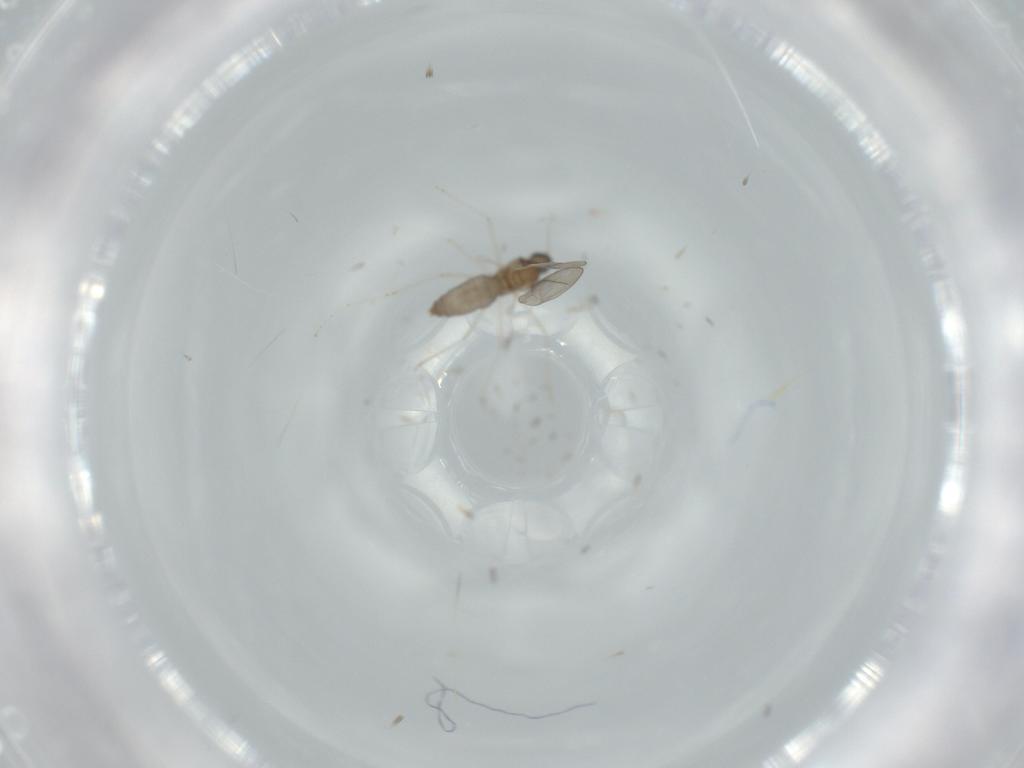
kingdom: Animalia
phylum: Arthropoda
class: Insecta
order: Diptera
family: Cecidomyiidae
